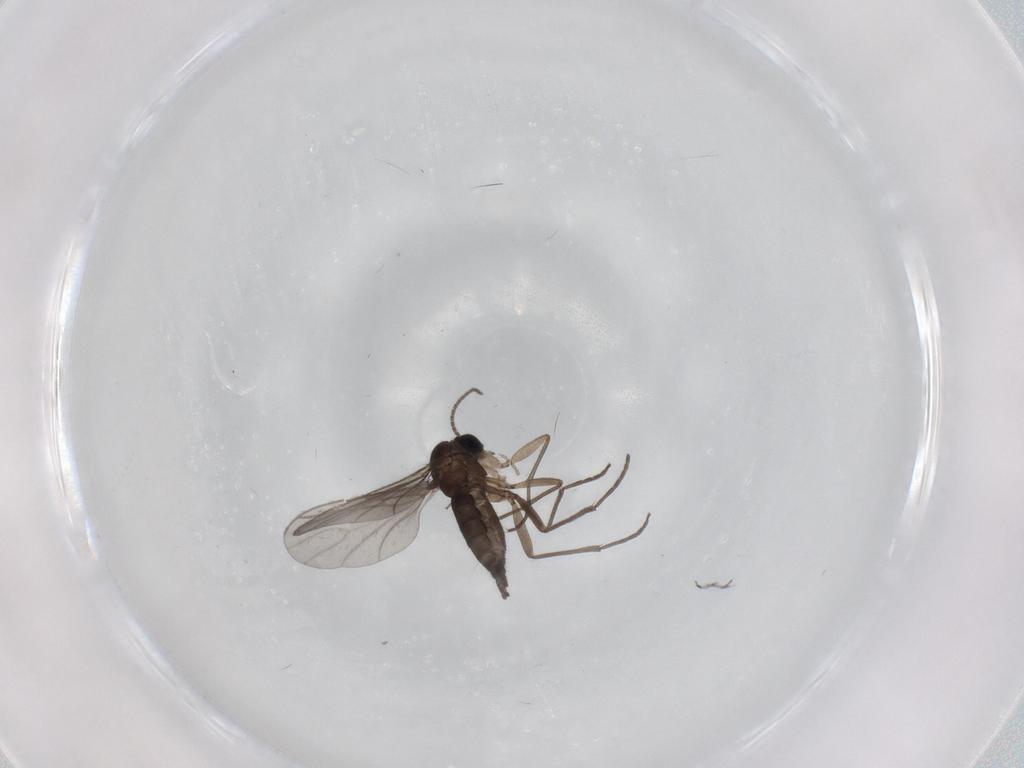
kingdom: Animalia
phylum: Arthropoda
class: Insecta
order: Diptera
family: Sciaridae
